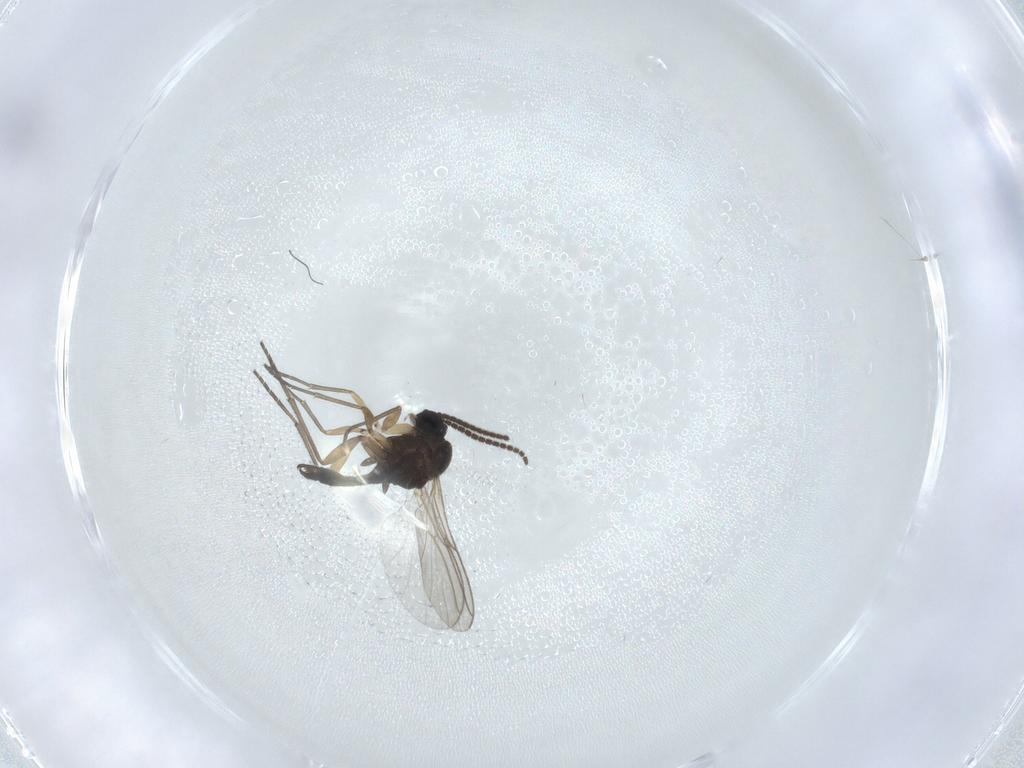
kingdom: Animalia
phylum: Arthropoda
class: Insecta
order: Diptera
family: Sciaridae
